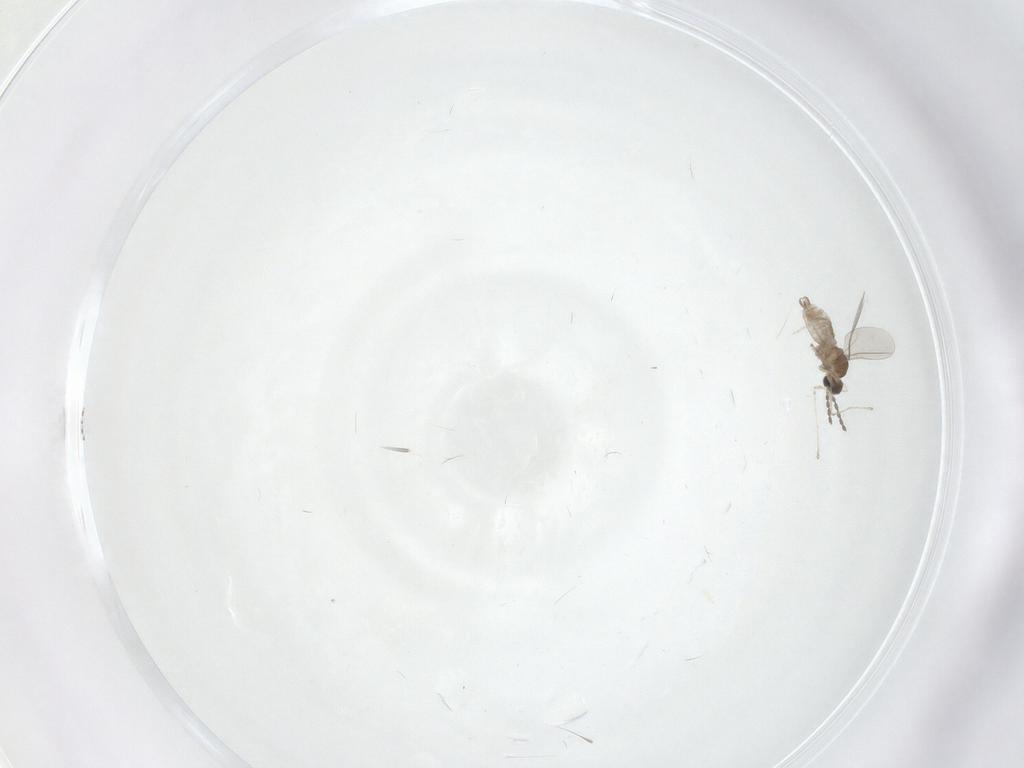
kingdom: Animalia
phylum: Arthropoda
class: Insecta
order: Diptera
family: Cecidomyiidae
